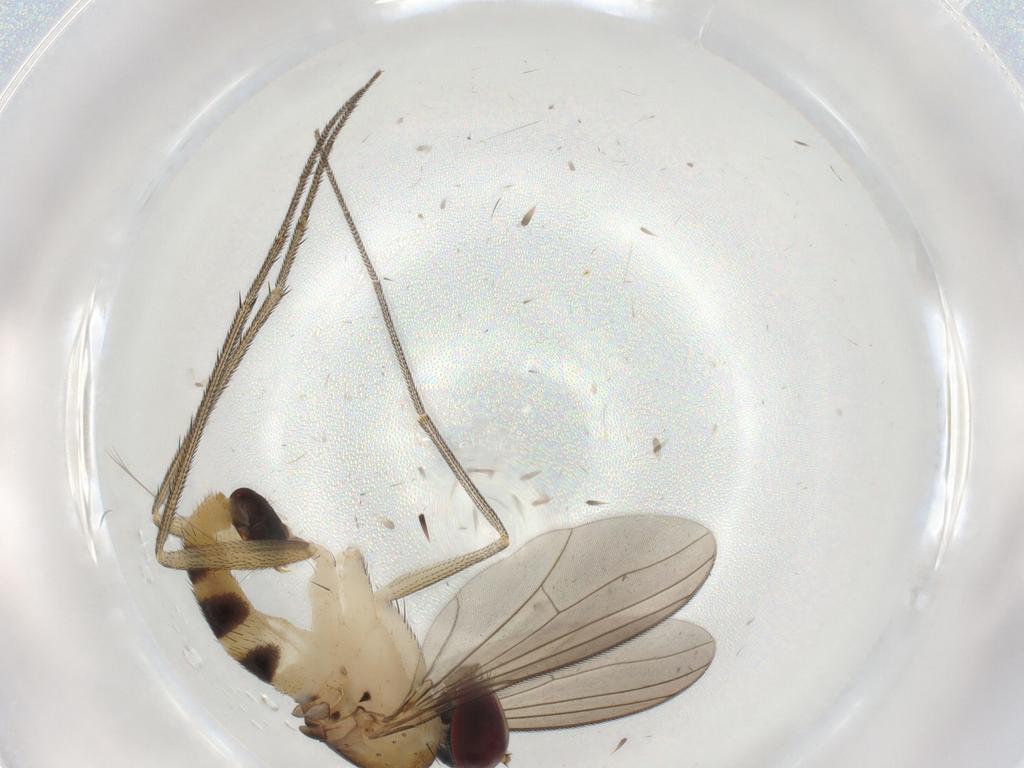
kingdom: Animalia
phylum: Arthropoda
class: Insecta
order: Diptera
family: Dolichopodidae
